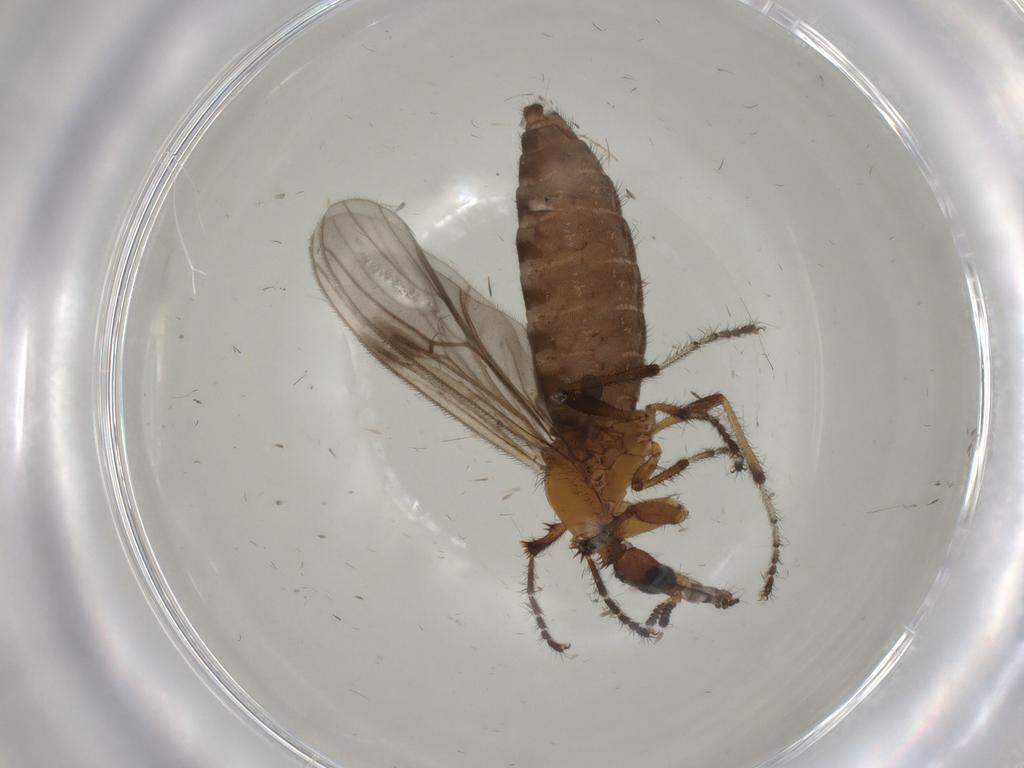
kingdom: Animalia
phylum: Arthropoda
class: Insecta
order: Diptera
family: Bibionidae
